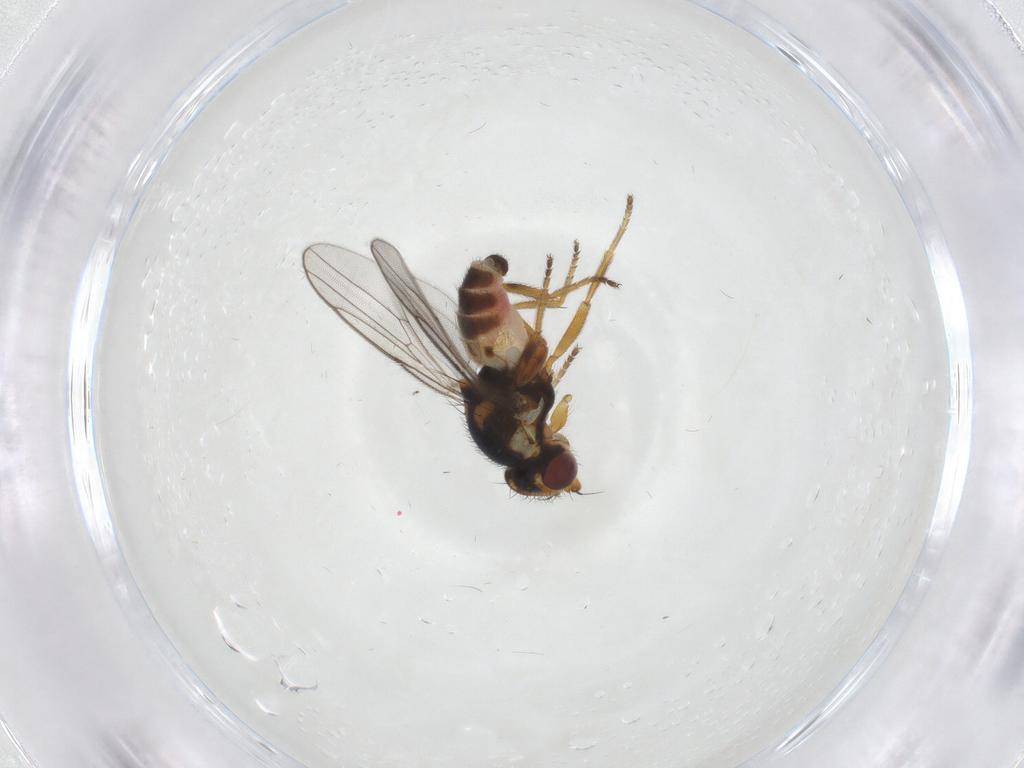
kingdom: Animalia
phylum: Arthropoda
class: Insecta
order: Diptera
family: Chloropidae
